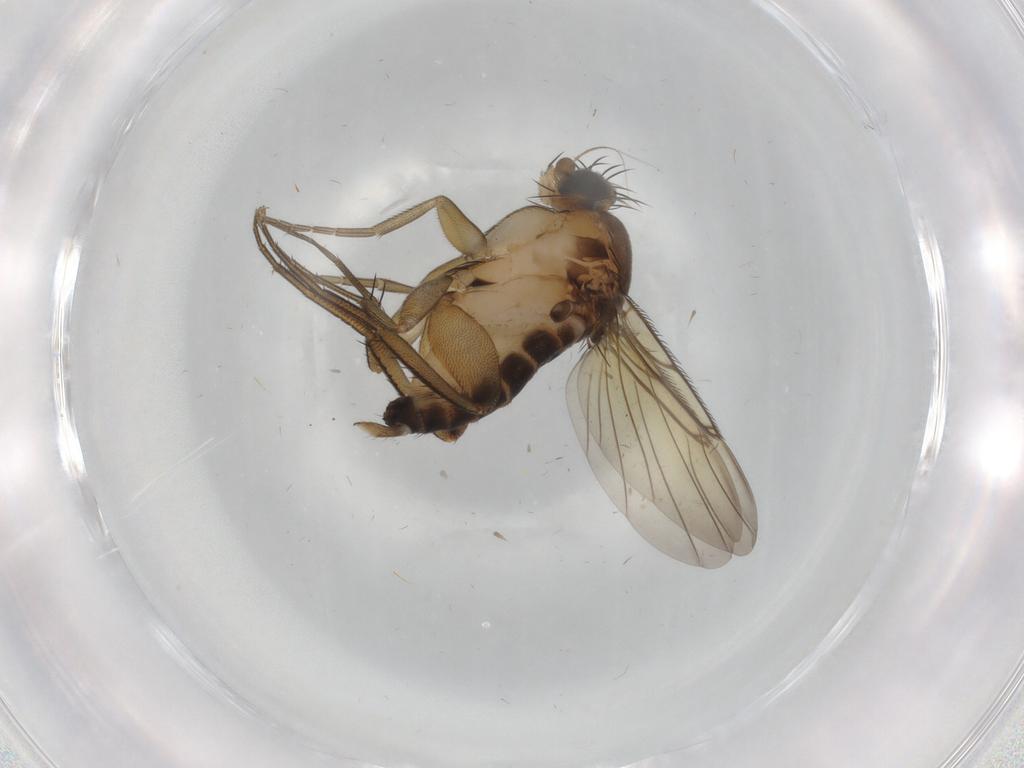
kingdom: Animalia
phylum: Arthropoda
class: Insecta
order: Diptera
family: Phoridae
